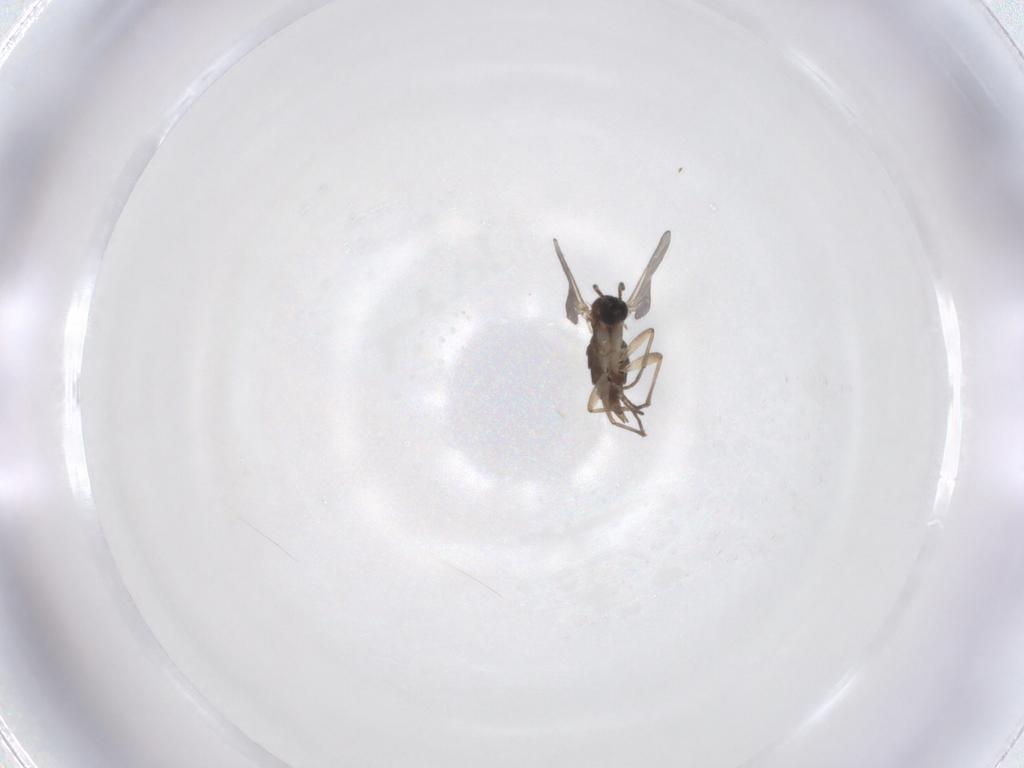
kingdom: Animalia
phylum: Arthropoda
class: Insecta
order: Diptera
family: Sciaridae
